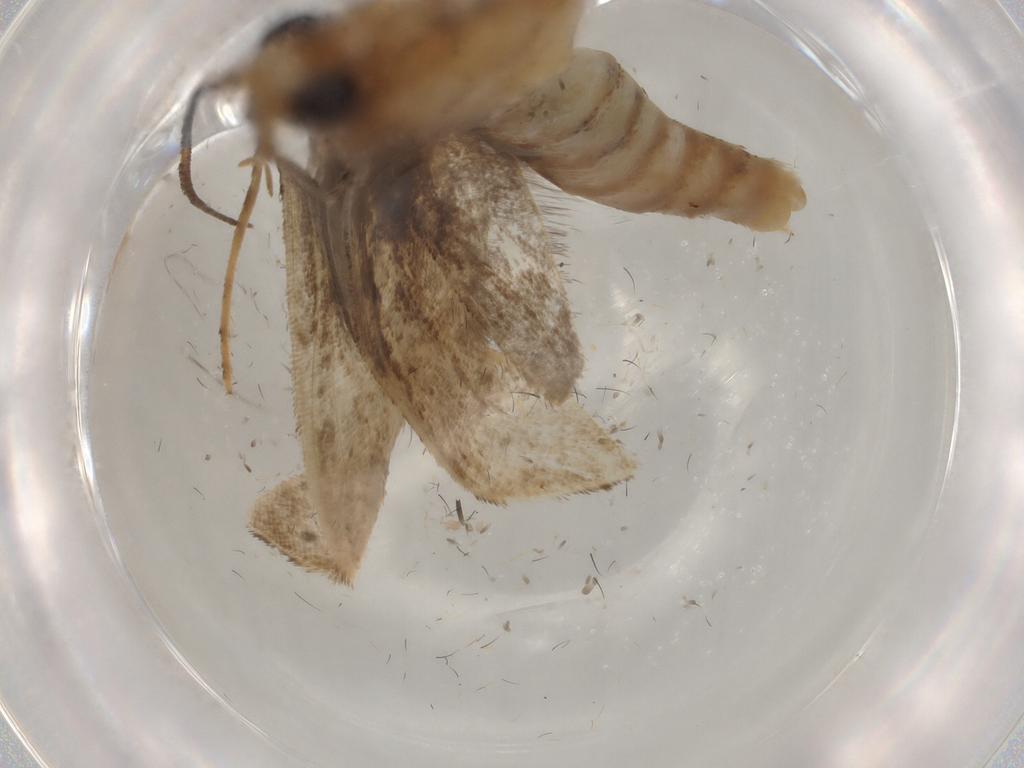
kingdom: Animalia
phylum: Arthropoda
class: Insecta
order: Lepidoptera
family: Yponomeutidae
